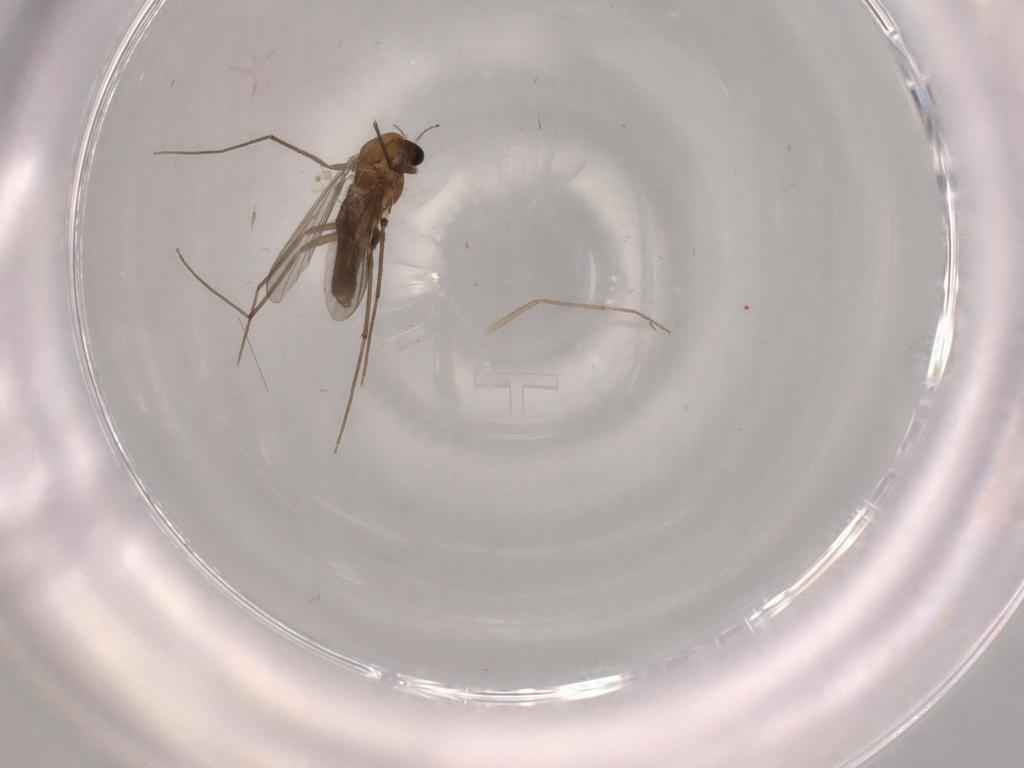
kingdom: Animalia
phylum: Arthropoda
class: Insecta
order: Diptera
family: Chironomidae
